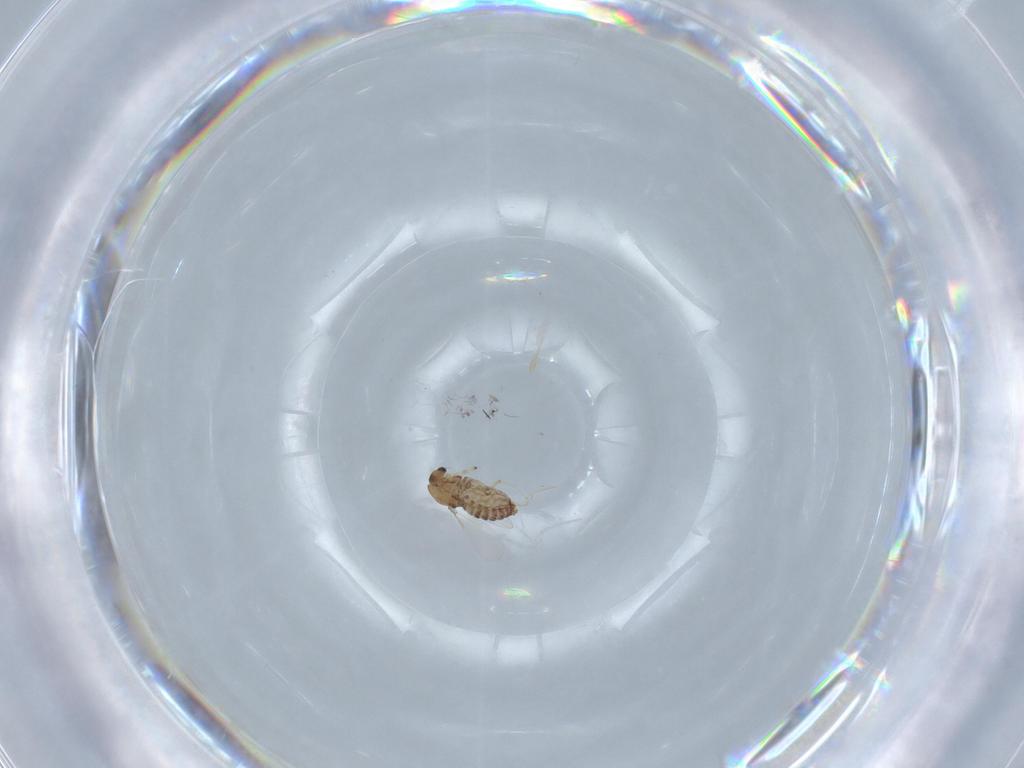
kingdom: Animalia
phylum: Arthropoda
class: Insecta
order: Diptera
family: Chironomidae
